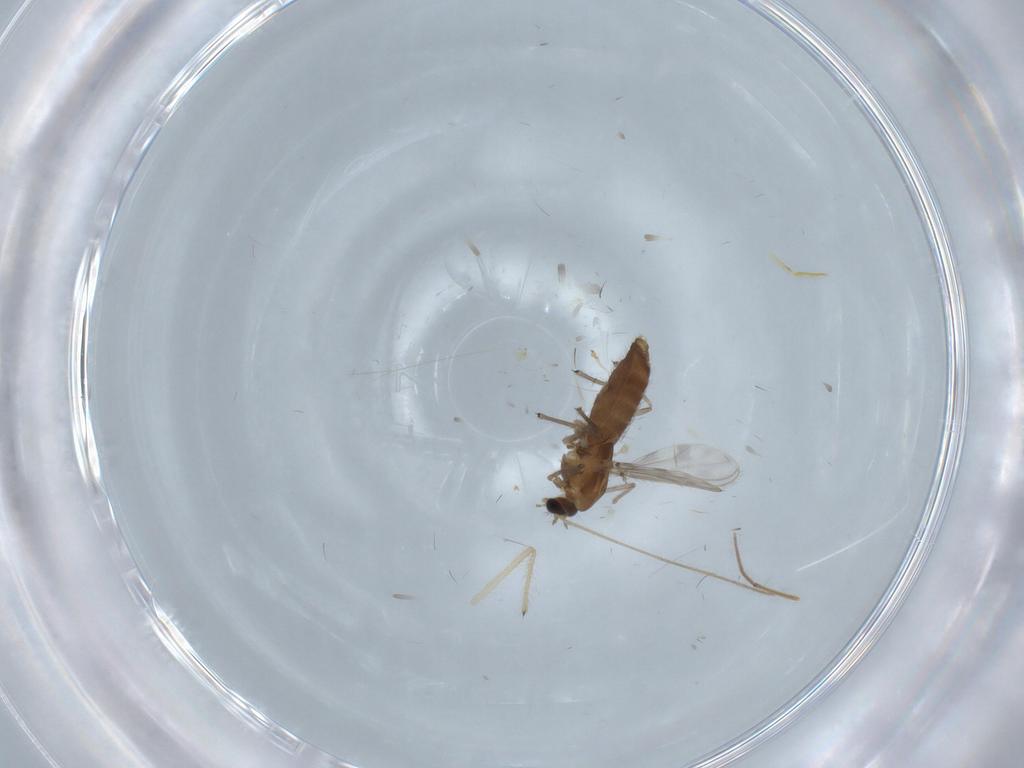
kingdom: Animalia
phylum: Arthropoda
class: Insecta
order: Diptera
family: Chironomidae
